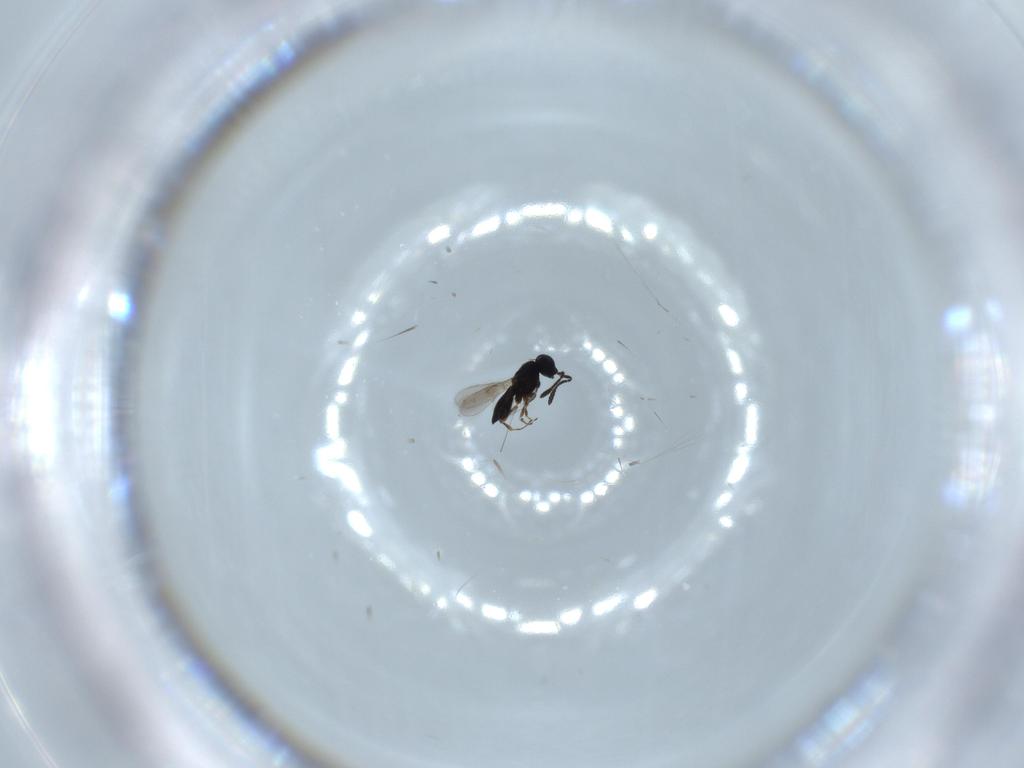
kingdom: Animalia
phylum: Arthropoda
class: Insecta
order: Hymenoptera
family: Scelionidae
